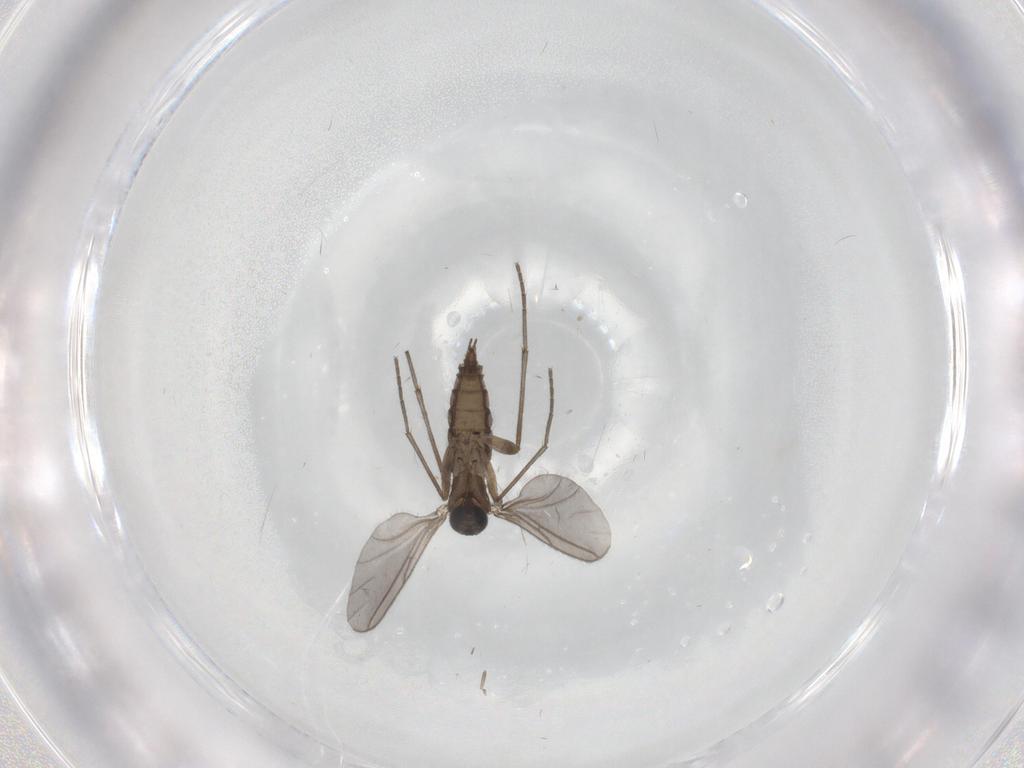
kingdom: Animalia
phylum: Arthropoda
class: Insecta
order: Diptera
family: Sciaridae
